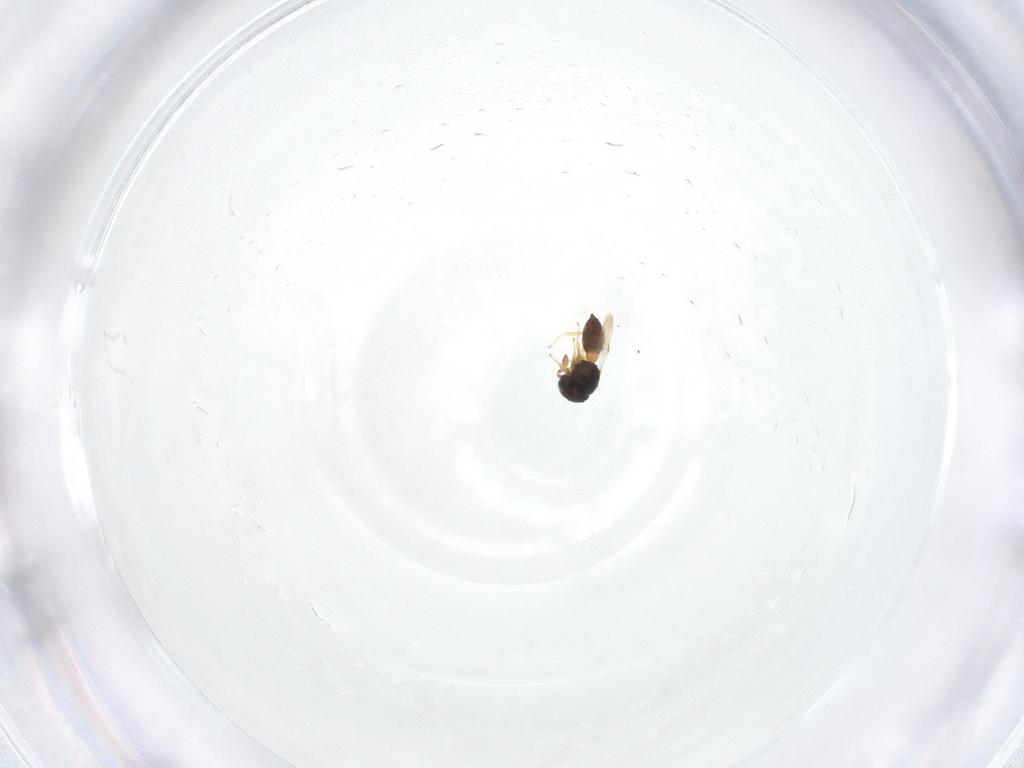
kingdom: Animalia
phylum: Arthropoda
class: Insecta
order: Hymenoptera
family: Scelionidae
